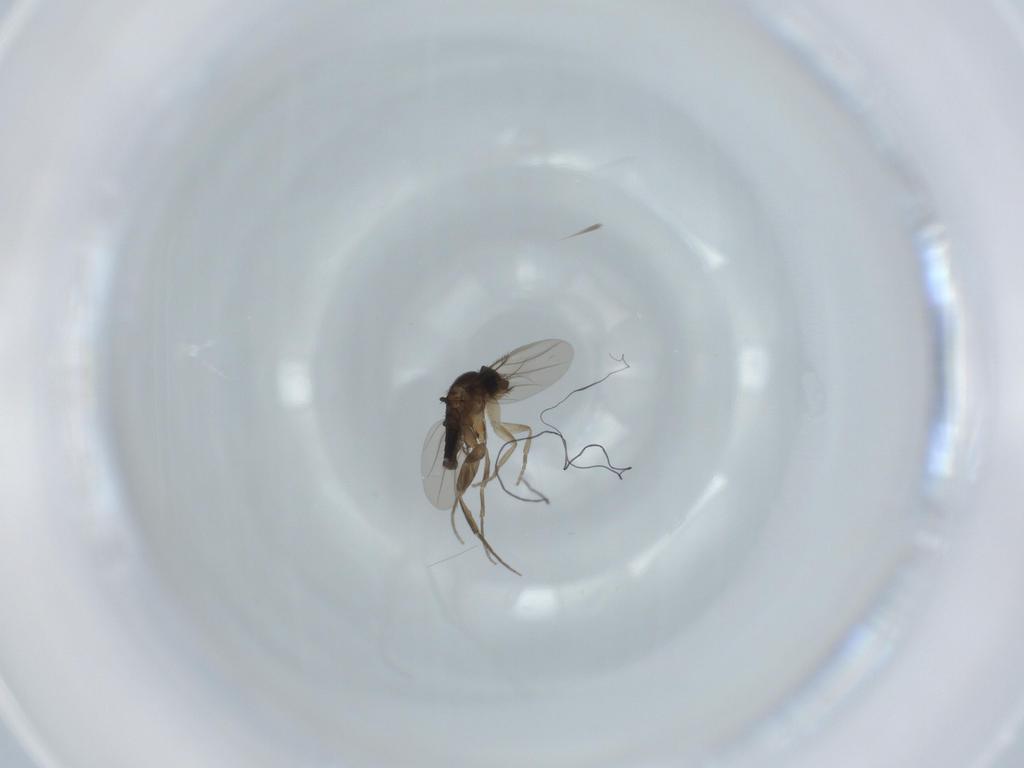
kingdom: Animalia
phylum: Arthropoda
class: Insecta
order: Diptera
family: Phoridae
